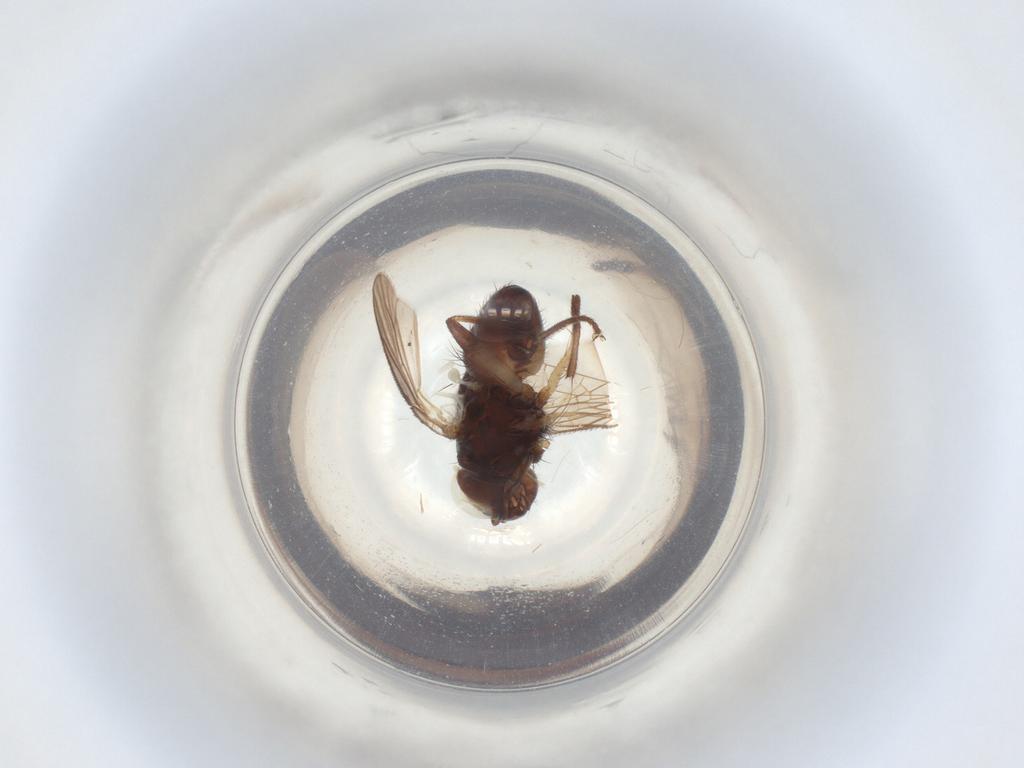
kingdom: Animalia
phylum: Arthropoda
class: Insecta
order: Diptera
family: Muscidae
